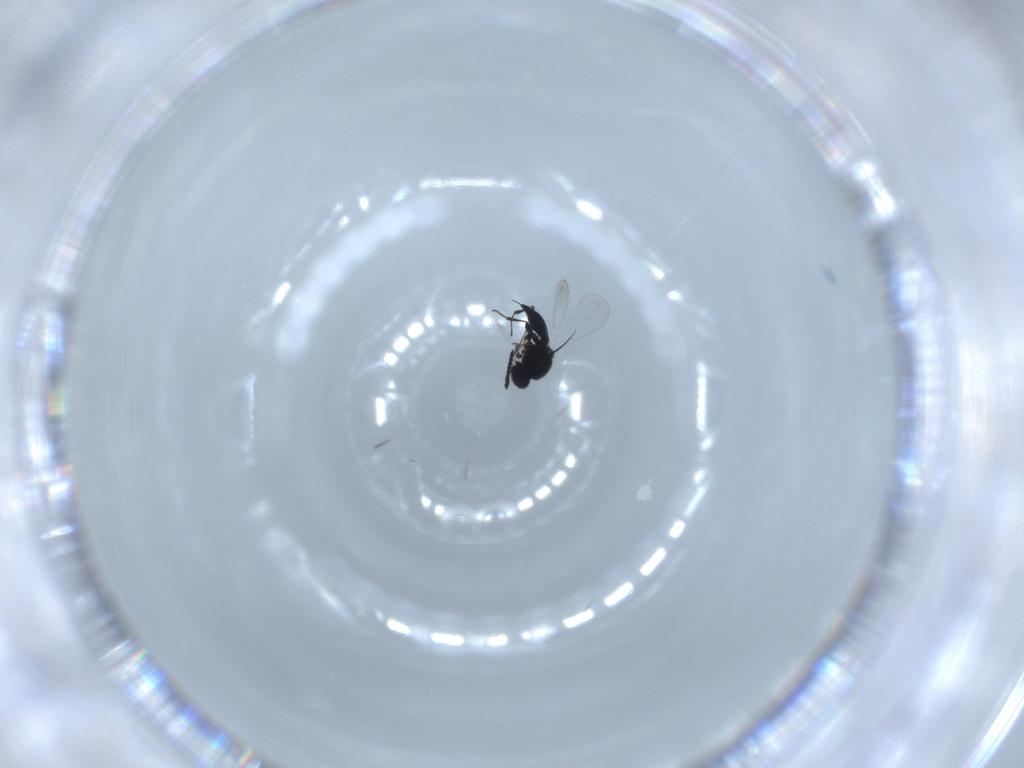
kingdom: Animalia
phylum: Arthropoda
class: Insecta
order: Hymenoptera
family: Platygastridae
